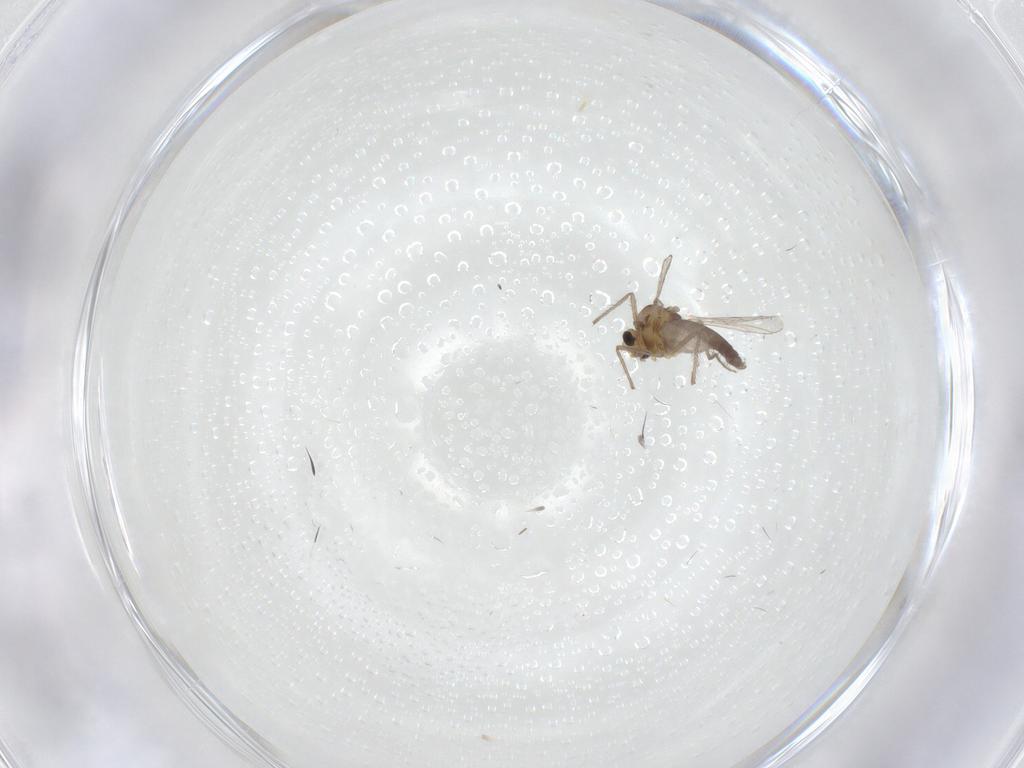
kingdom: Animalia
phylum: Arthropoda
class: Insecta
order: Diptera
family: Chironomidae
